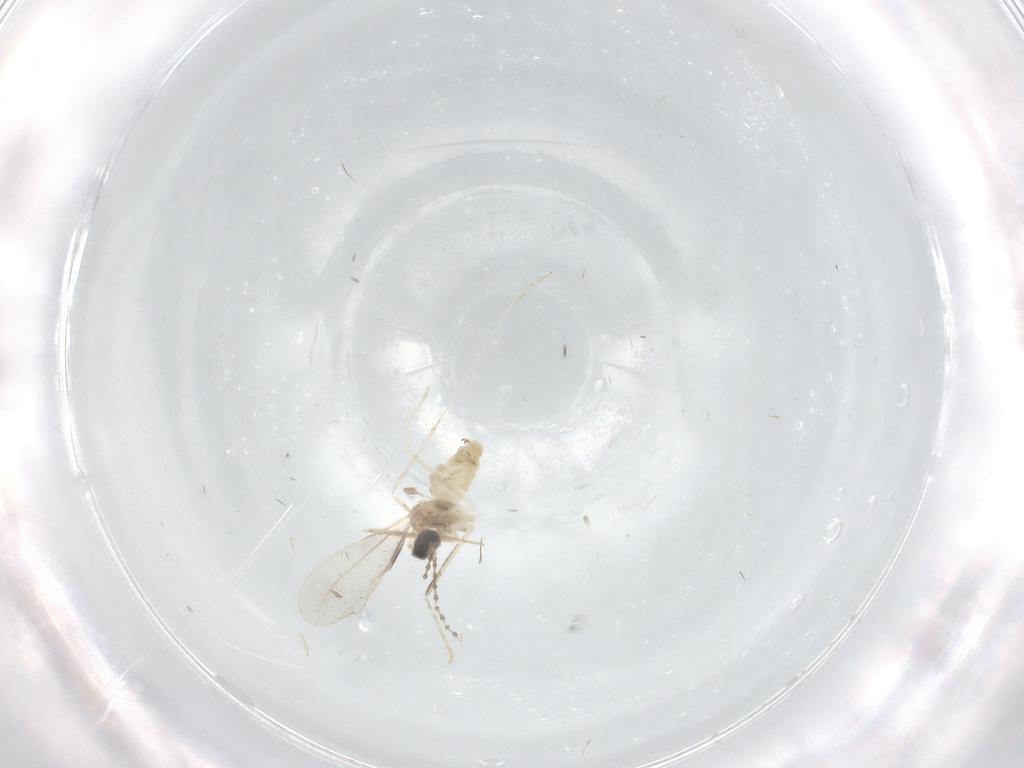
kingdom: Animalia
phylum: Arthropoda
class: Insecta
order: Diptera
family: Cecidomyiidae
